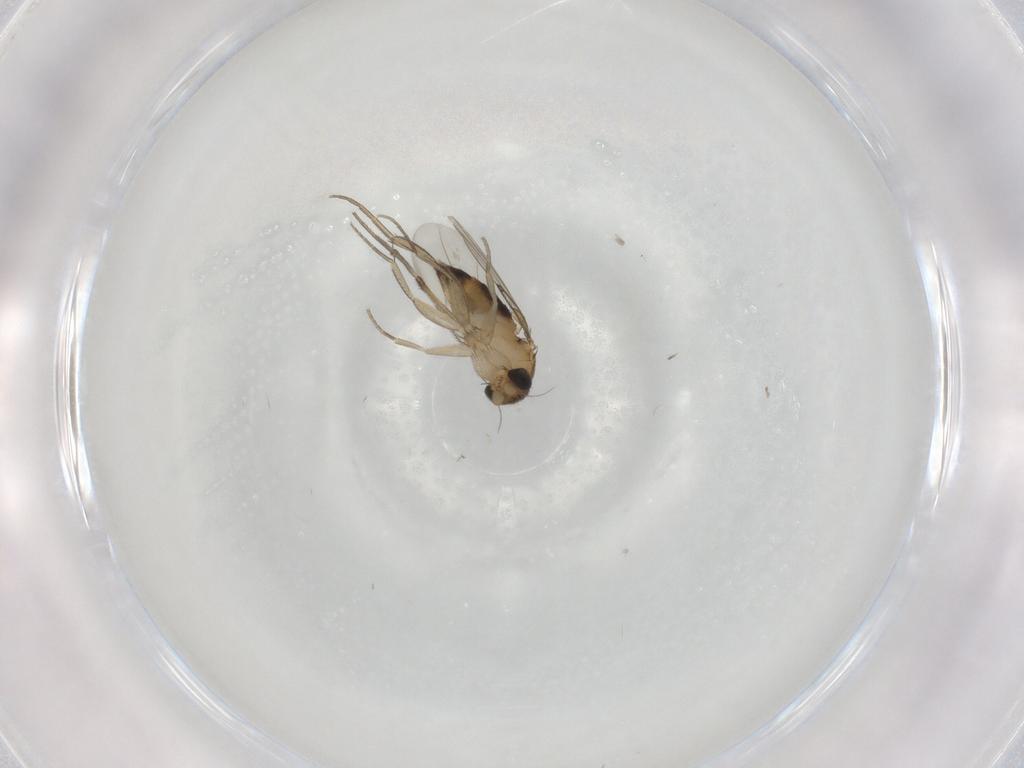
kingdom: Animalia
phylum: Arthropoda
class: Insecta
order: Diptera
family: Phoridae
